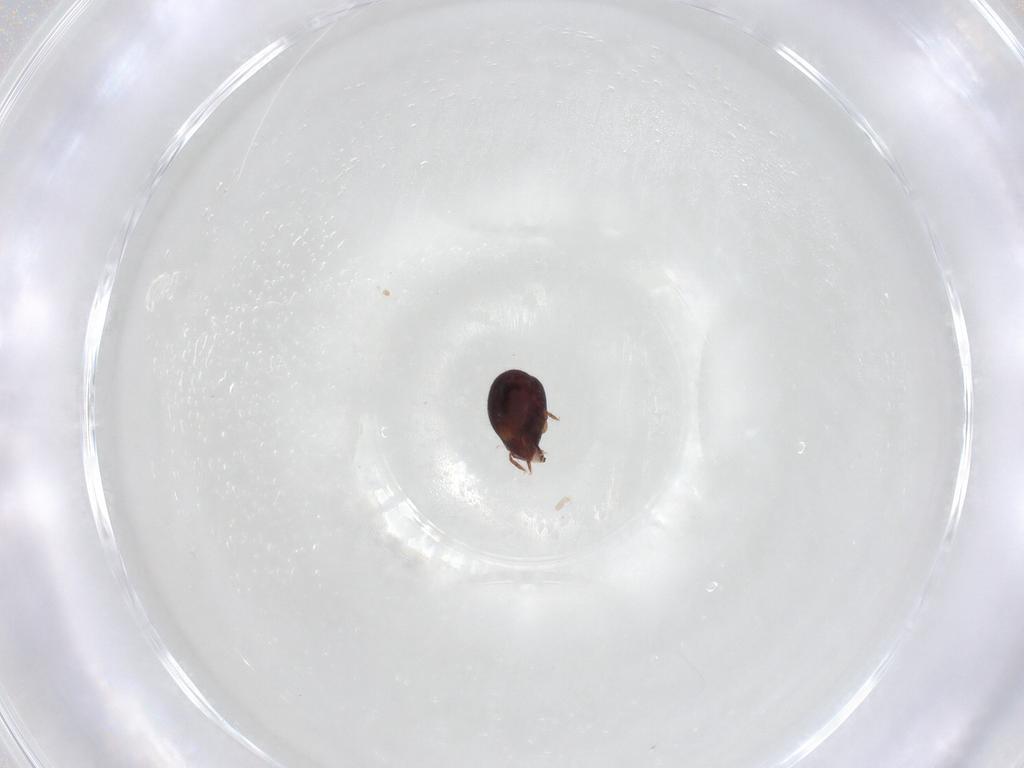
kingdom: Animalia
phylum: Arthropoda
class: Arachnida
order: Sarcoptiformes
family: Humerobatidae
